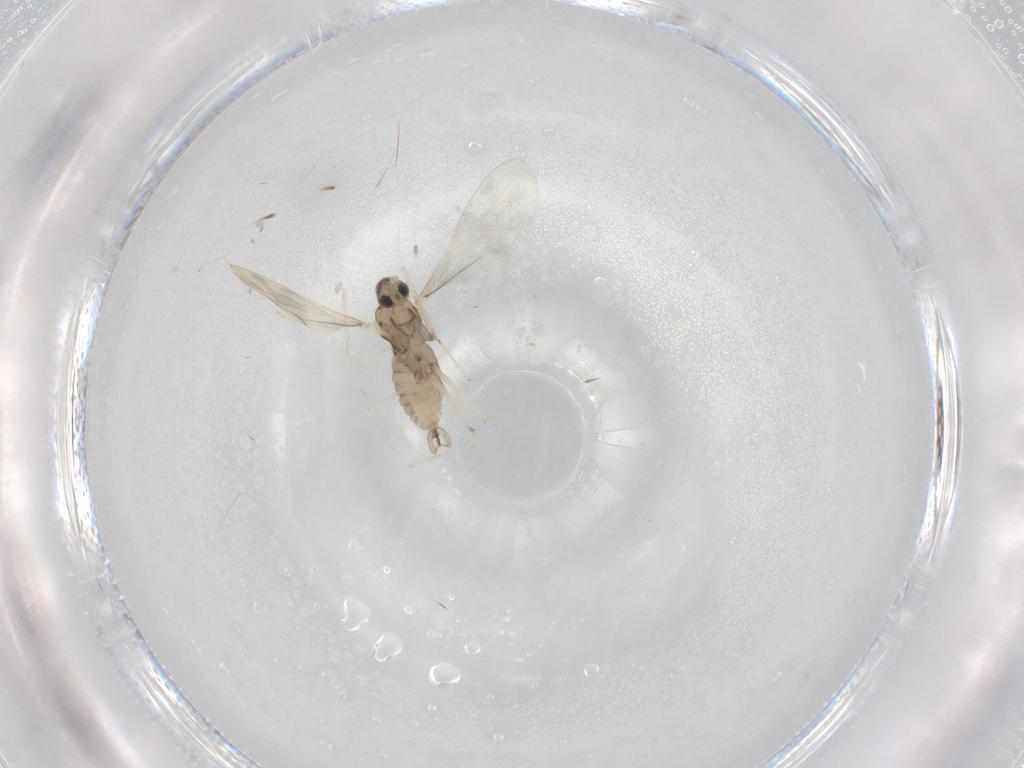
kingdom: Animalia
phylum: Arthropoda
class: Insecta
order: Diptera
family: Cecidomyiidae
